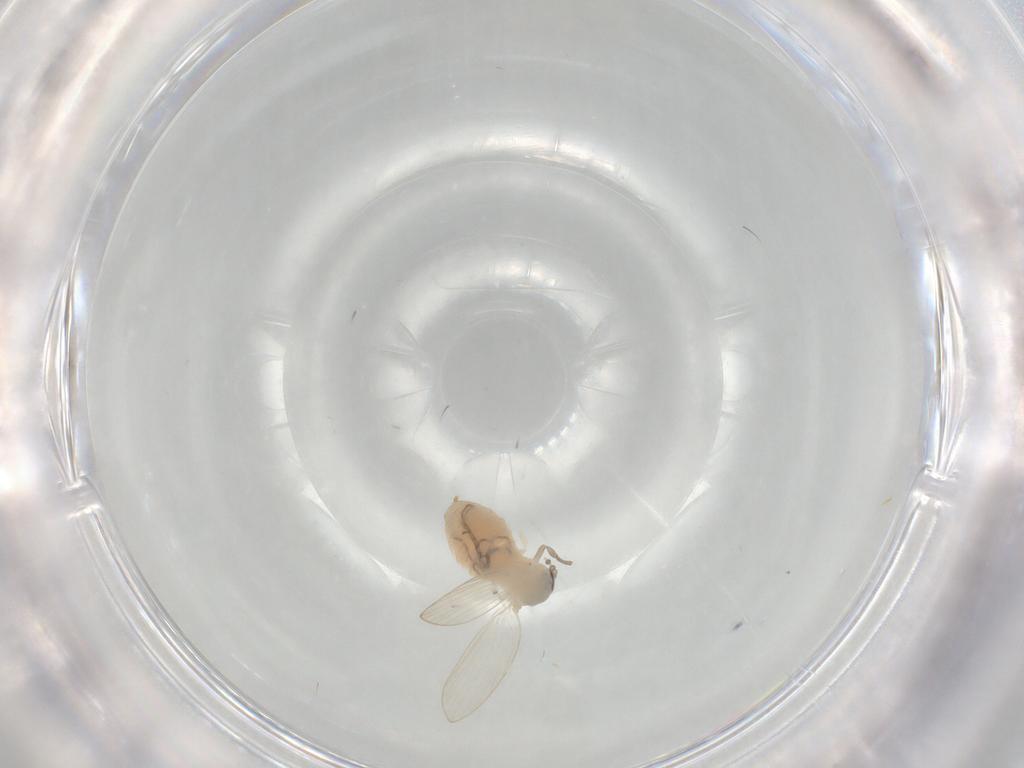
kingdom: Animalia
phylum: Arthropoda
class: Insecta
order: Diptera
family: Psychodidae
